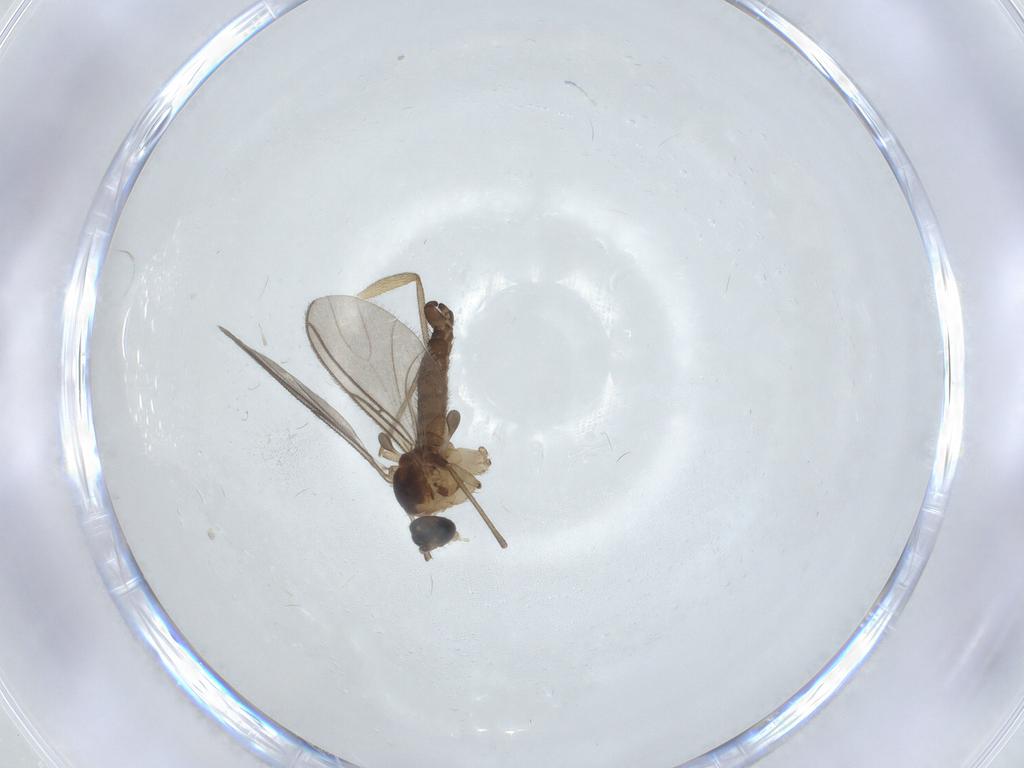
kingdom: Animalia
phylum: Arthropoda
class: Insecta
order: Diptera
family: Sciaridae
